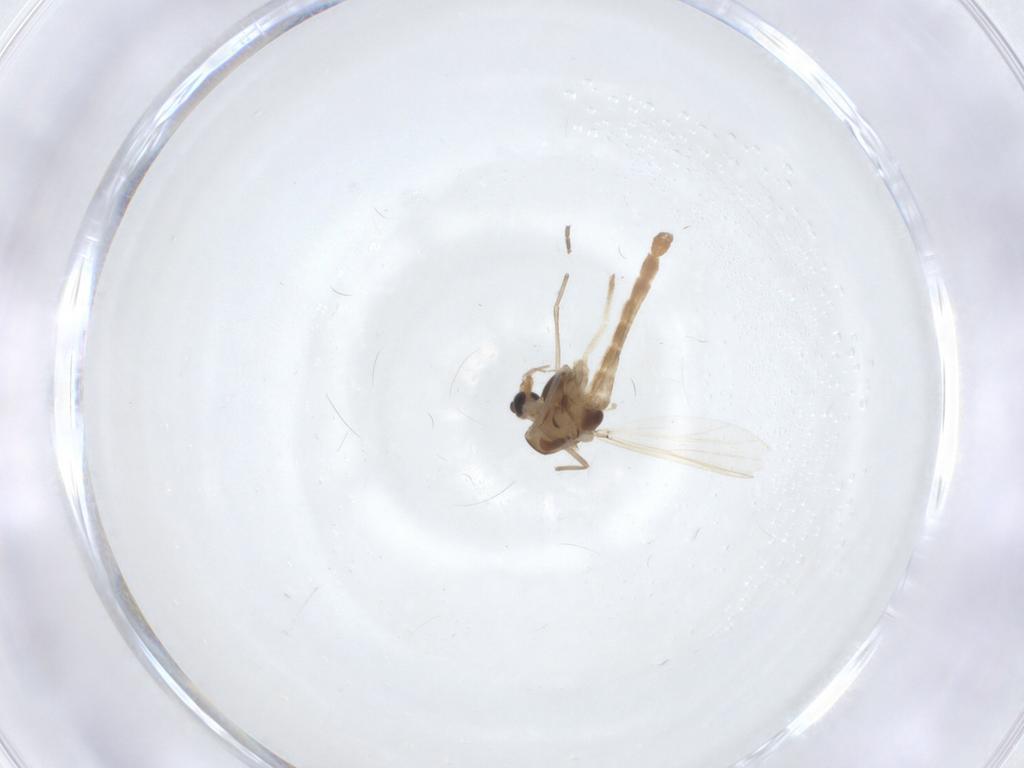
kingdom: Animalia
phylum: Arthropoda
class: Insecta
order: Diptera
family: Chironomidae
